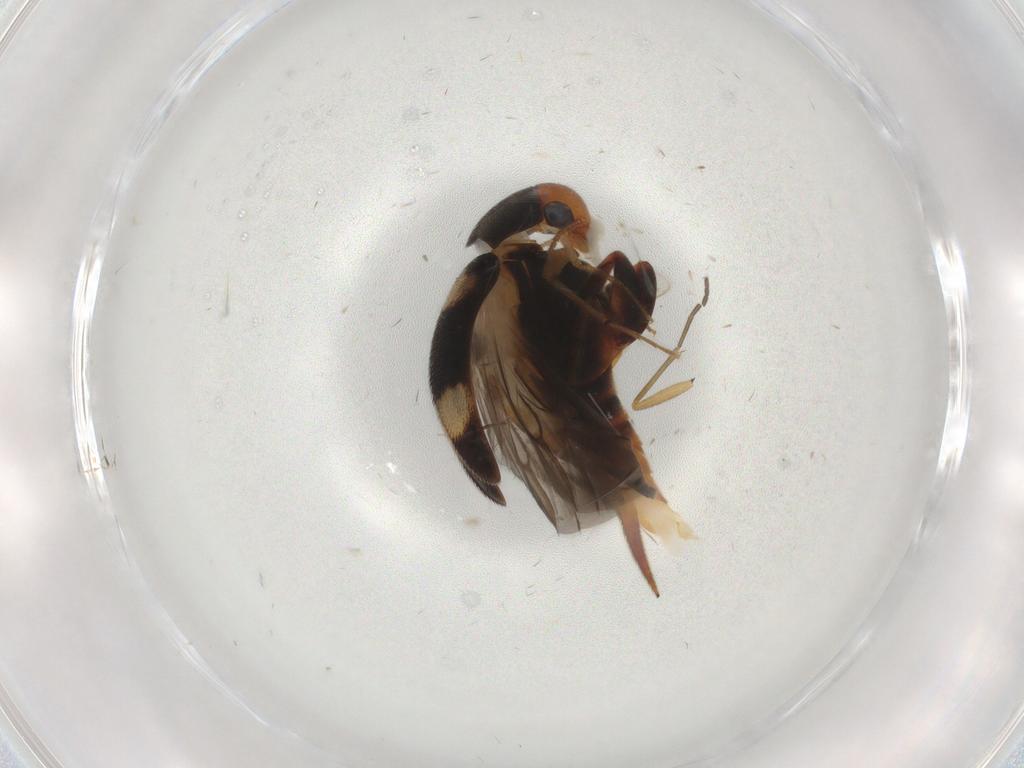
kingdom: Animalia
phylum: Arthropoda
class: Insecta
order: Coleoptera
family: Mordellidae
